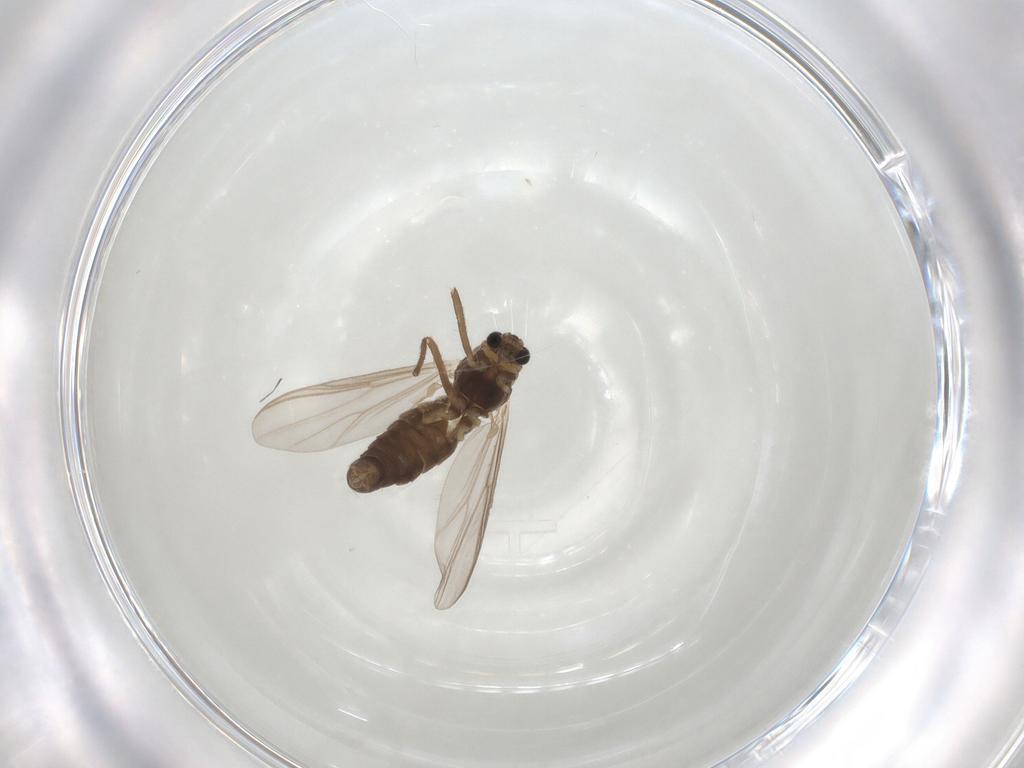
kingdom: Animalia
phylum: Arthropoda
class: Insecta
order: Diptera
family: Chironomidae
